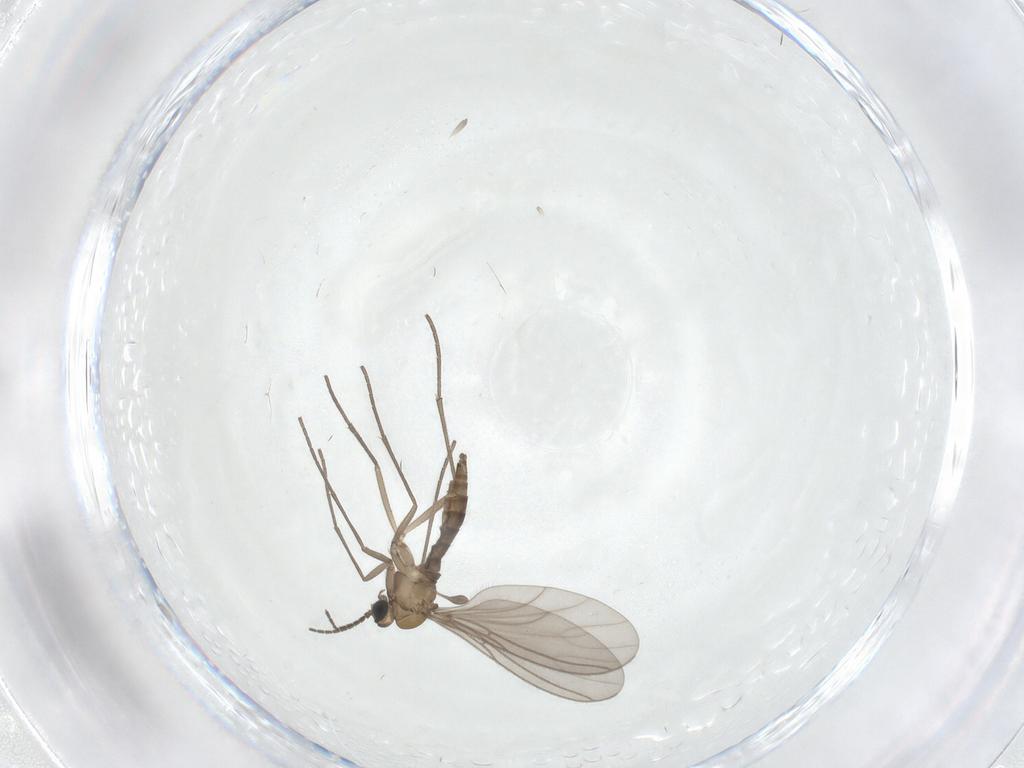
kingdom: Animalia
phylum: Arthropoda
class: Insecta
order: Diptera
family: Sciaridae
